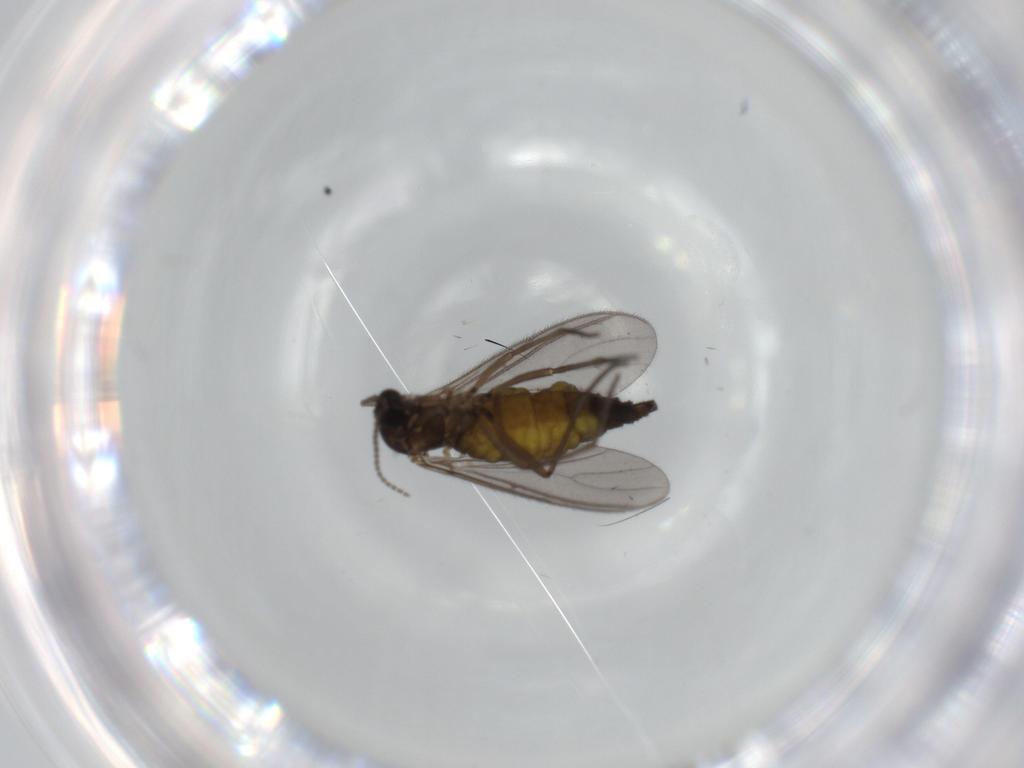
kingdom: Animalia
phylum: Arthropoda
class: Insecta
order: Diptera
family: Sciaridae
